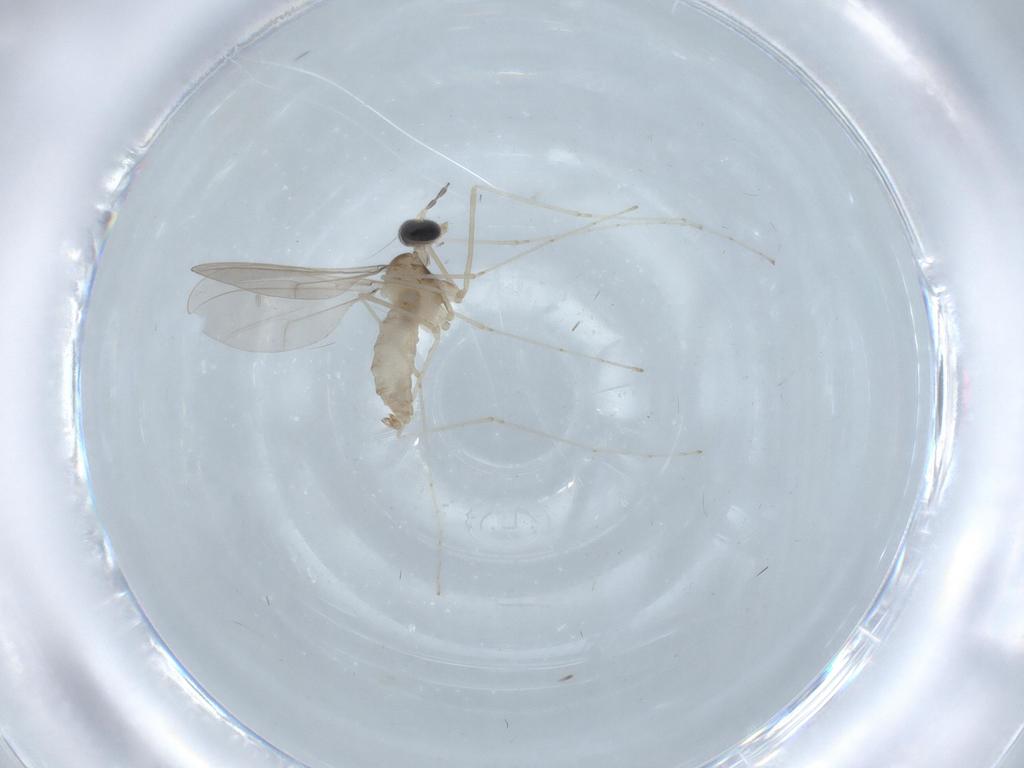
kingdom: Animalia
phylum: Arthropoda
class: Insecta
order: Diptera
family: Cecidomyiidae
